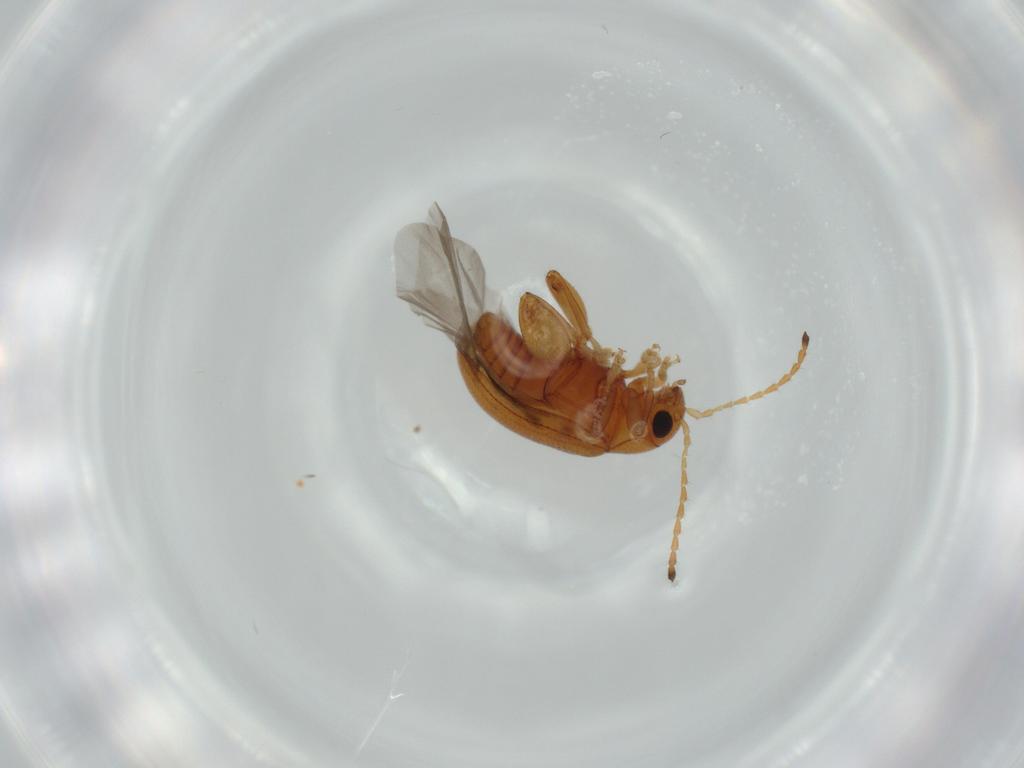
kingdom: Animalia
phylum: Arthropoda
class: Insecta
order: Coleoptera
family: Chrysomelidae
